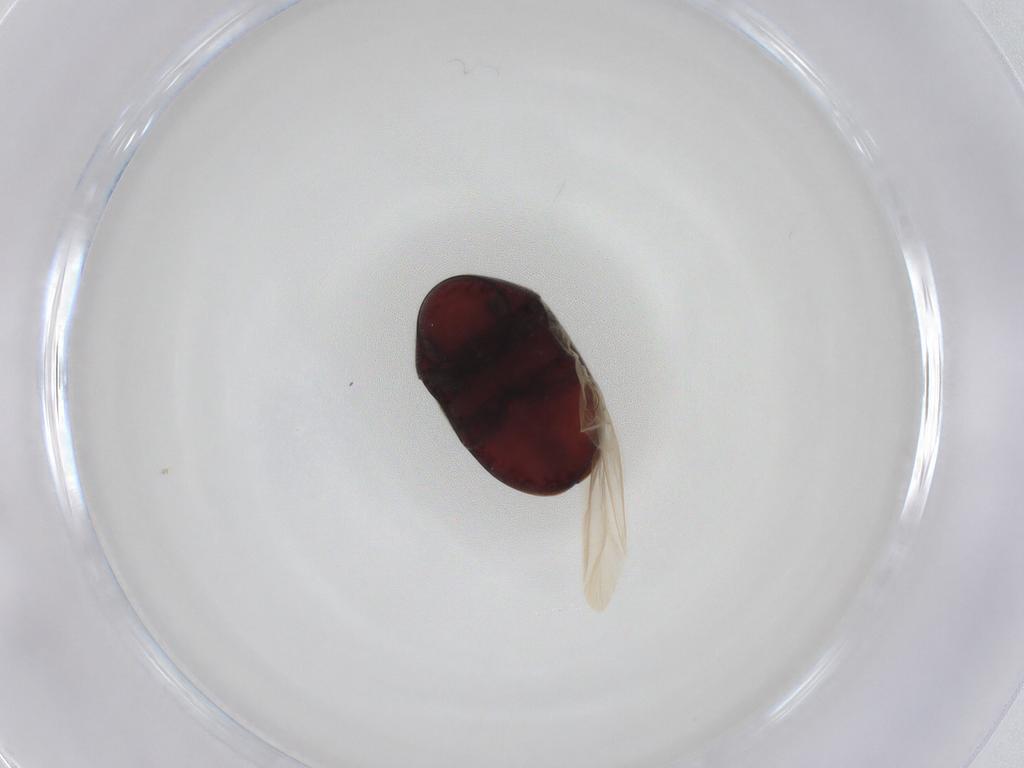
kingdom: Animalia
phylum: Arthropoda
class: Insecta
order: Coleoptera
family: Ptinidae
